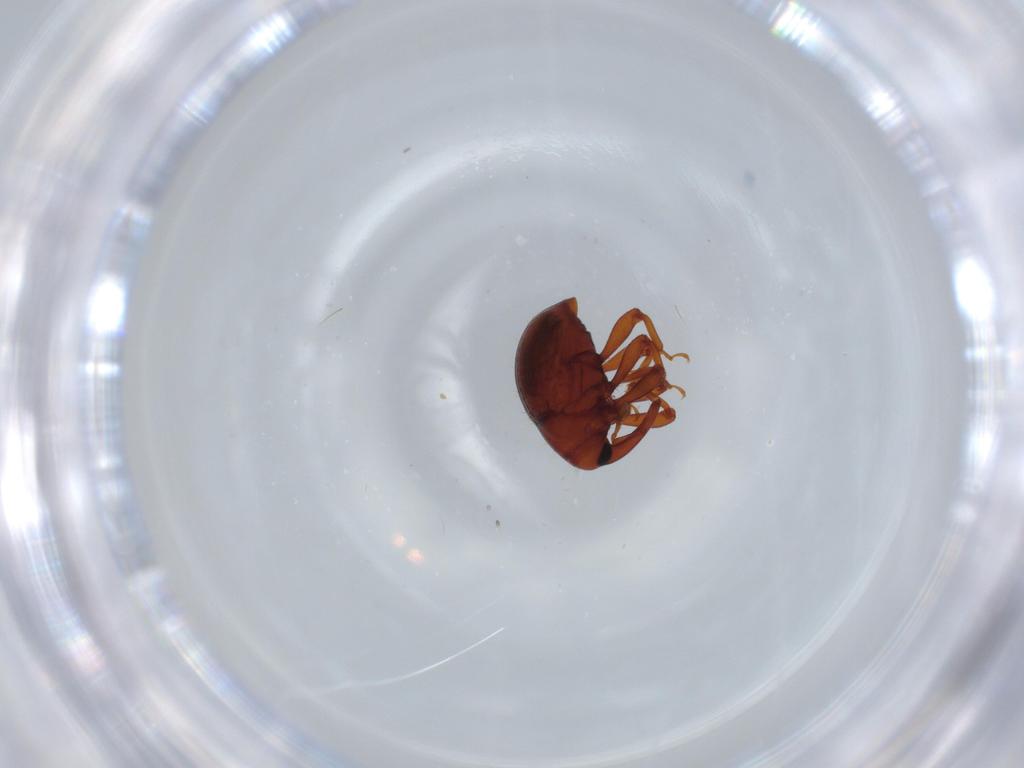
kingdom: Animalia
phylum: Arthropoda
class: Insecta
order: Coleoptera
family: Curculionidae
